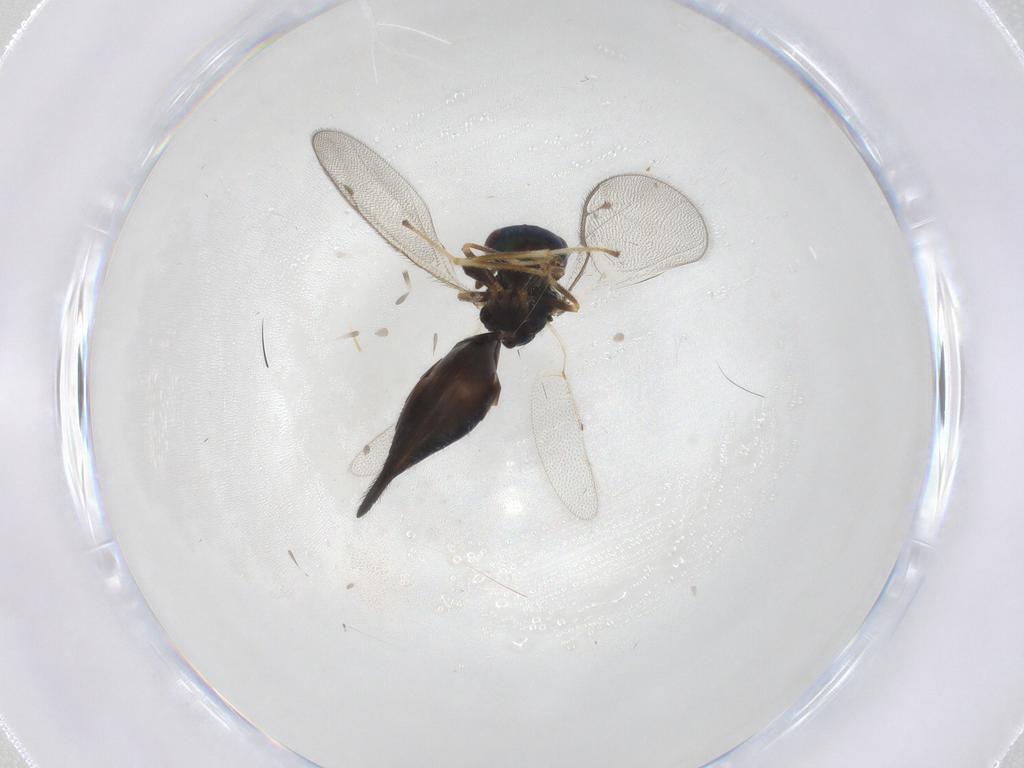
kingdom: Animalia
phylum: Arthropoda
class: Insecta
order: Hymenoptera
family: Pteromalidae
